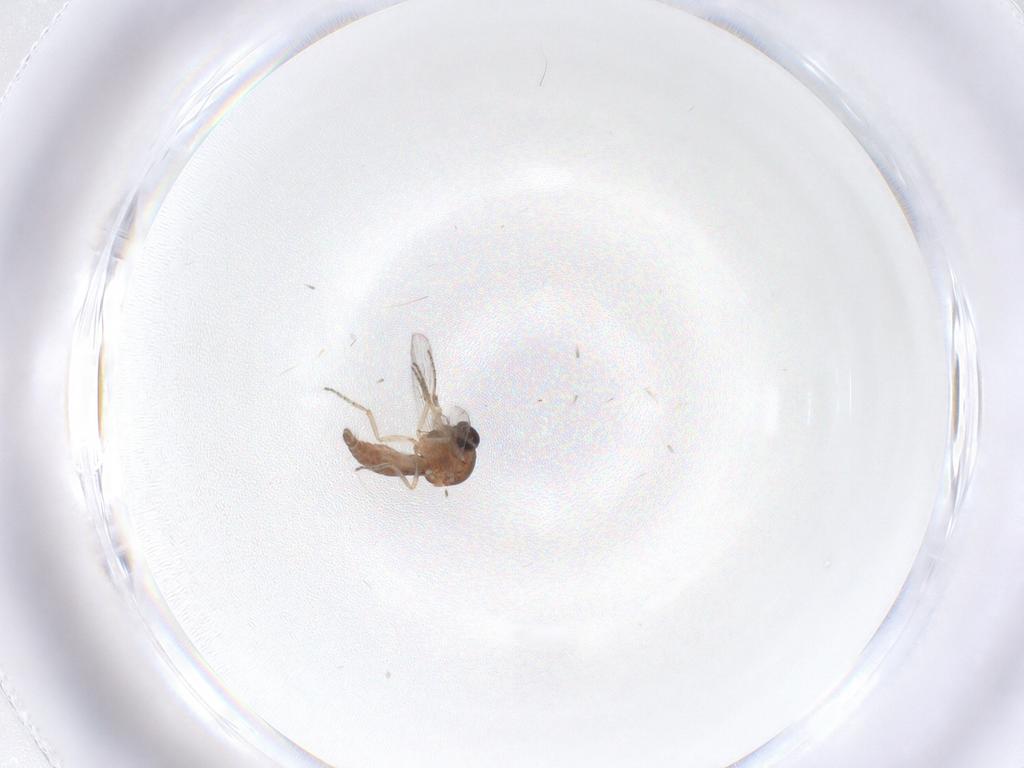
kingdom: Animalia
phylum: Arthropoda
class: Insecta
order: Diptera
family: Ceratopogonidae
